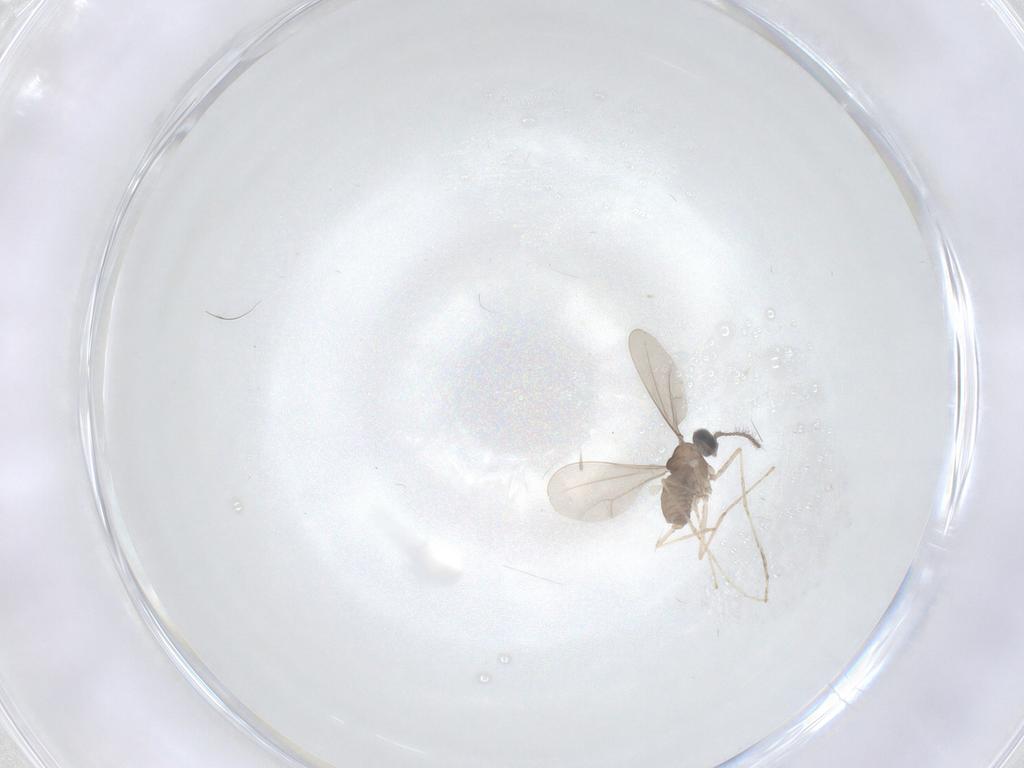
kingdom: Animalia
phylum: Arthropoda
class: Insecta
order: Diptera
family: Cecidomyiidae
